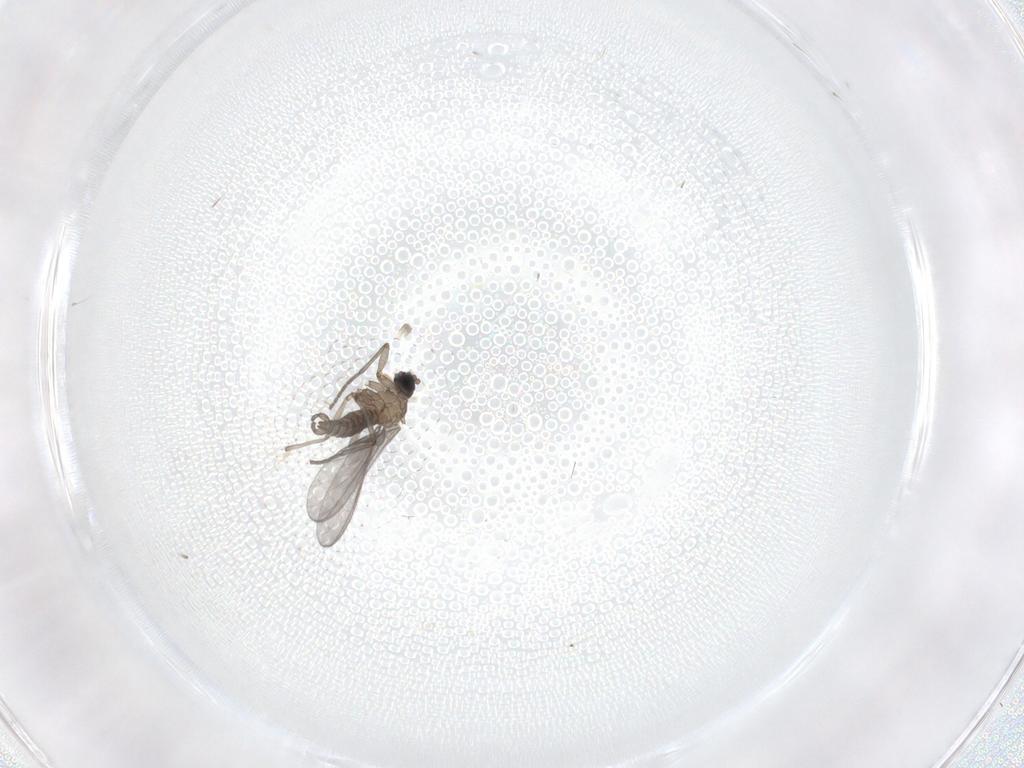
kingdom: Animalia
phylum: Arthropoda
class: Insecta
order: Diptera
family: Sciaridae
